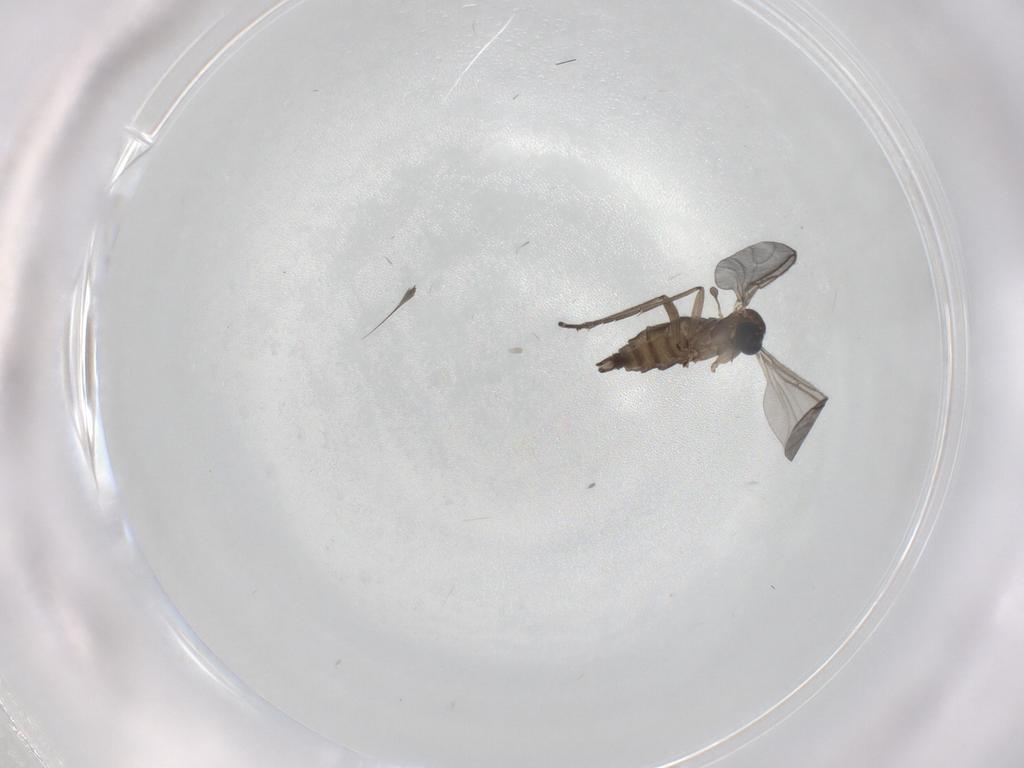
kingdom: Animalia
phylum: Arthropoda
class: Insecta
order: Diptera
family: Sciaridae
